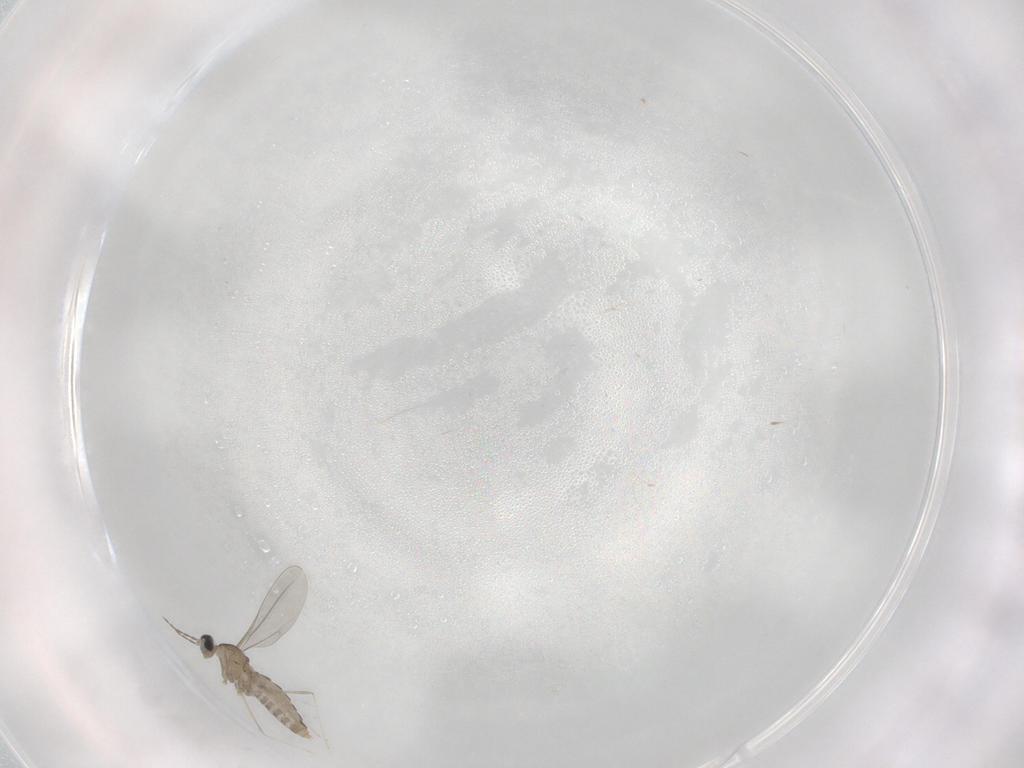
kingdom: Animalia
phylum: Arthropoda
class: Insecta
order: Diptera
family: Cecidomyiidae
